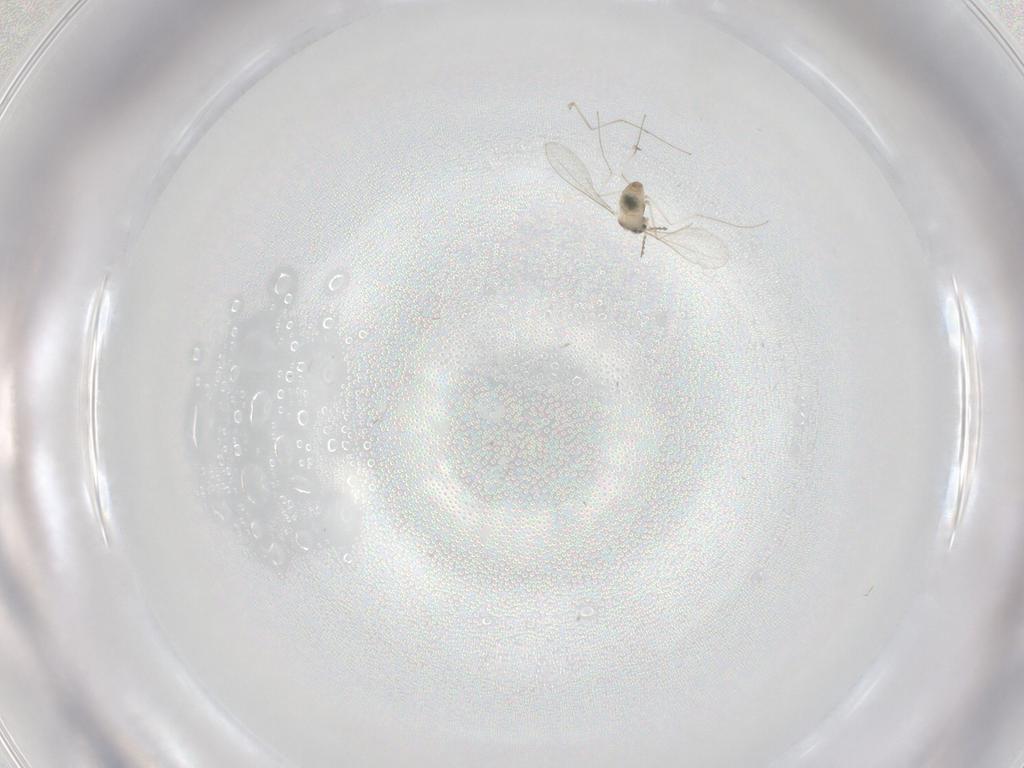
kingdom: Animalia
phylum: Arthropoda
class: Insecta
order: Diptera
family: Cecidomyiidae
